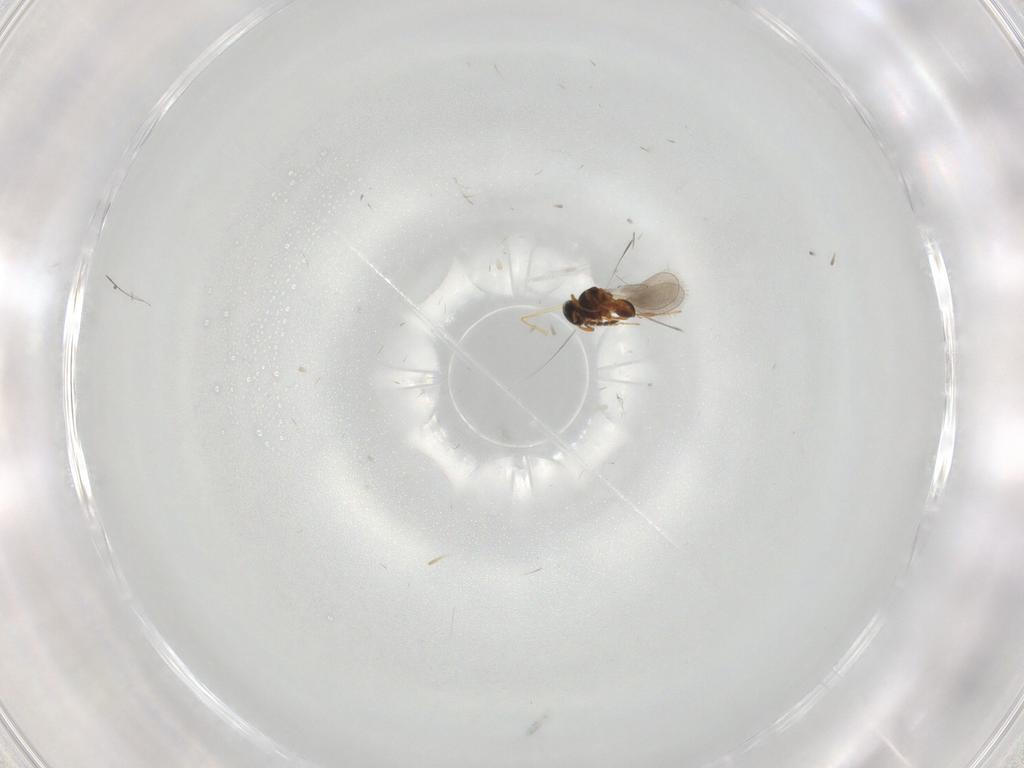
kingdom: Animalia
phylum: Arthropoda
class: Insecta
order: Hymenoptera
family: Platygastridae
